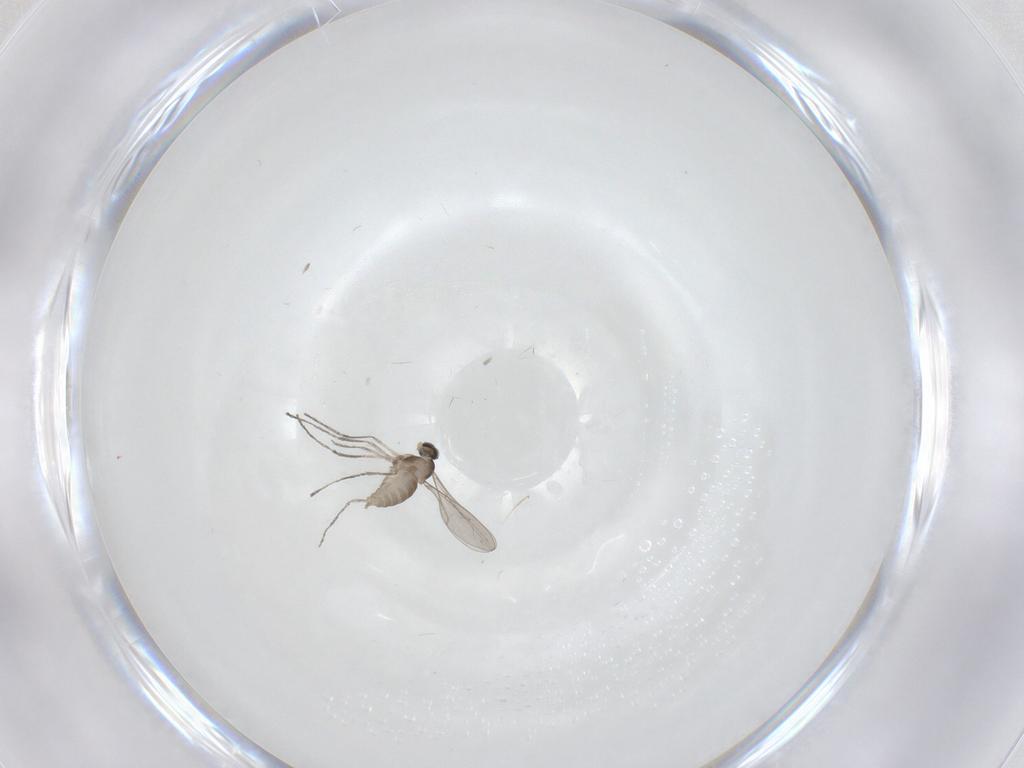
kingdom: Animalia
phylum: Arthropoda
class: Insecta
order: Diptera
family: Cecidomyiidae
